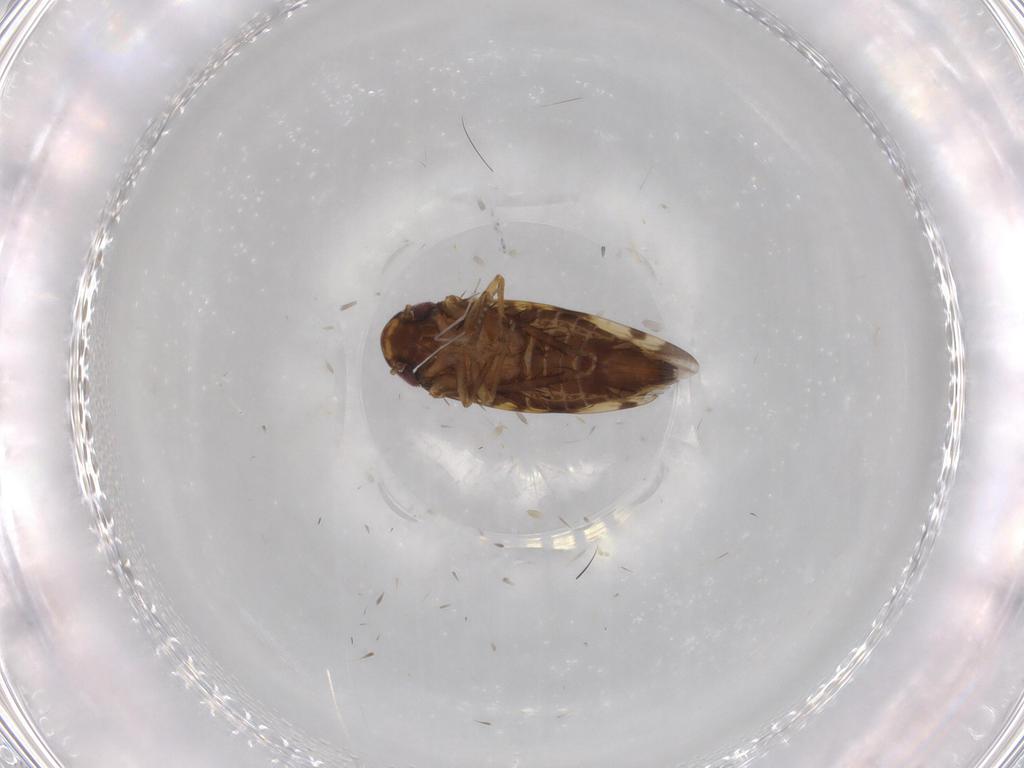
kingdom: Animalia
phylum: Arthropoda
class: Insecta
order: Hemiptera
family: Cicadellidae
